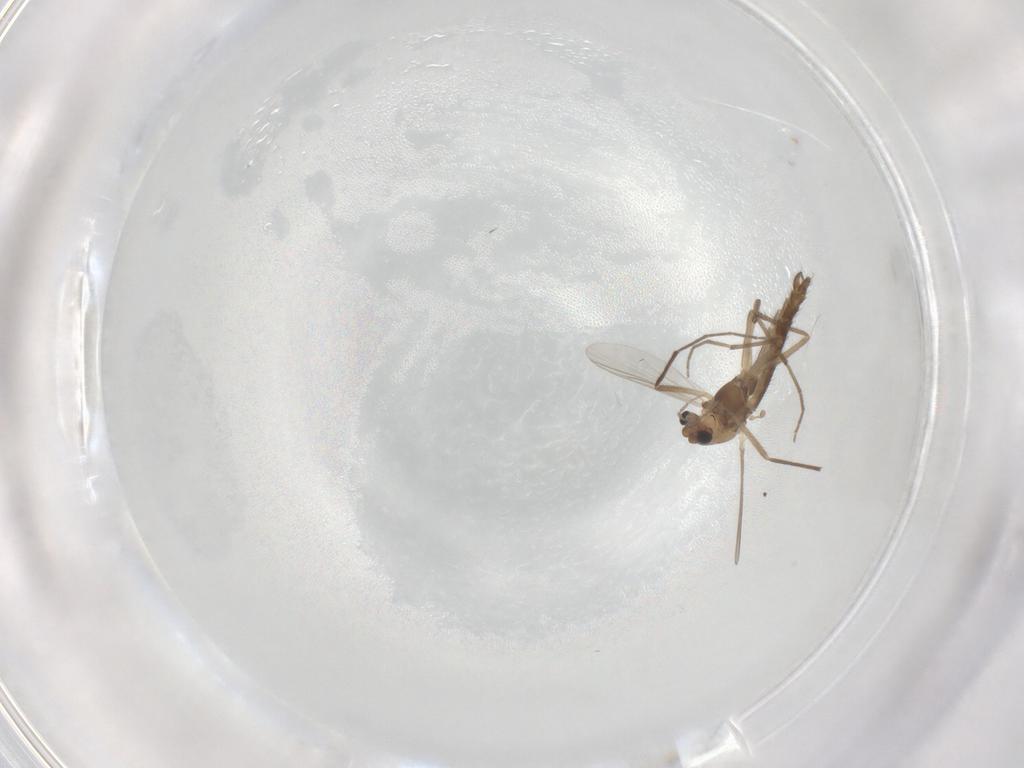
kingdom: Animalia
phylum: Arthropoda
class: Insecta
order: Diptera
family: Chironomidae
